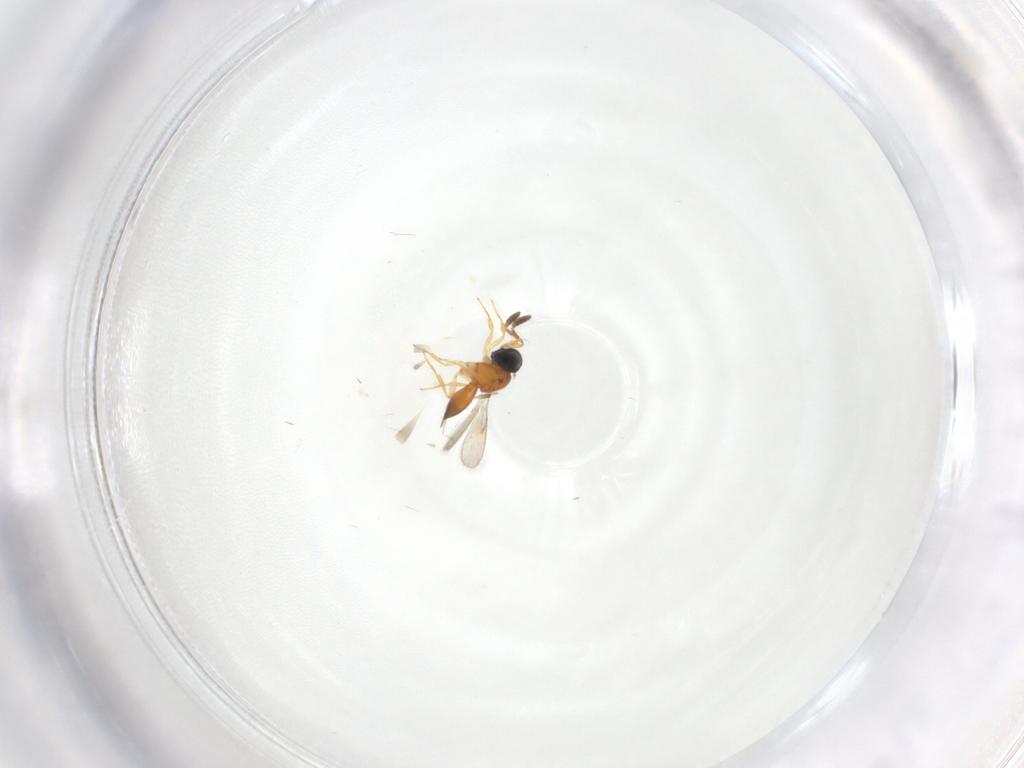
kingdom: Animalia
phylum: Arthropoda
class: Insecta
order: Hymenoptera
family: Scelionidae
